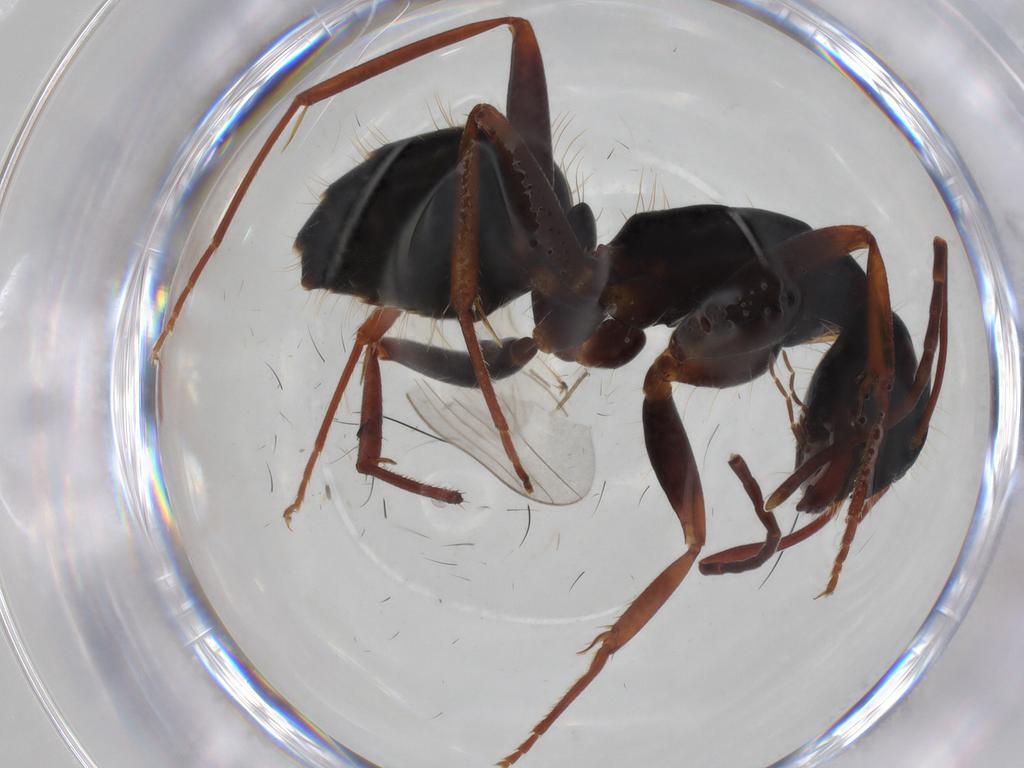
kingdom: Animalia
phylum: Arthropoda
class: Insecta
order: Hymenoptera
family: Formicidae
